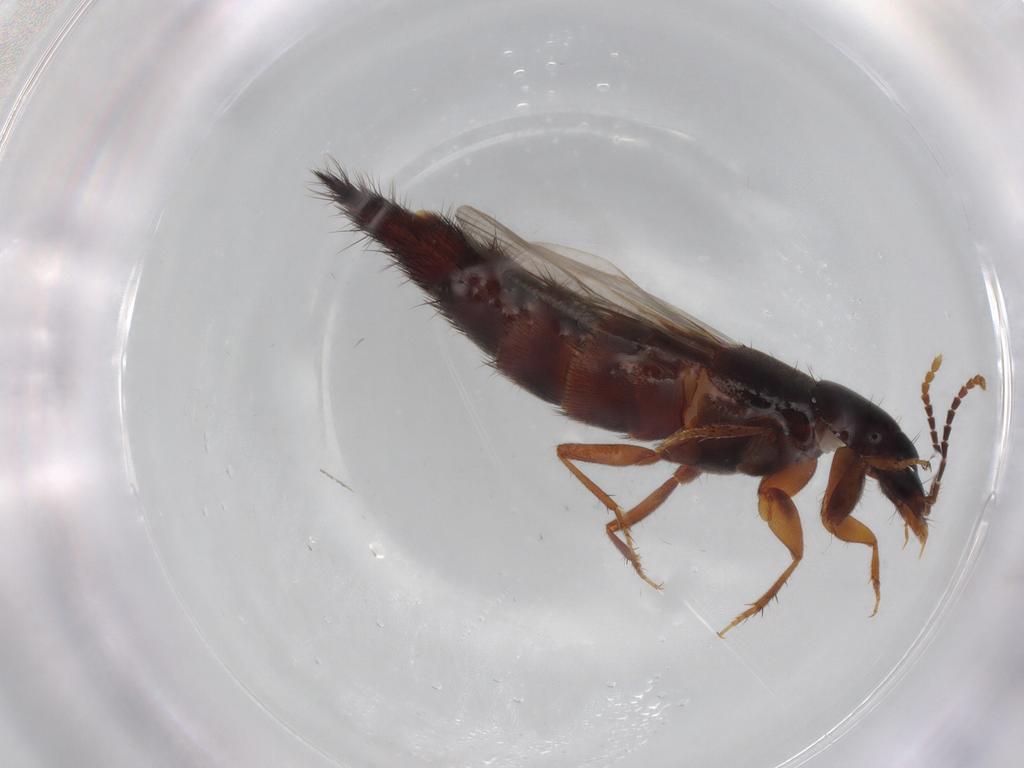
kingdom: Animalia
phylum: Arthropoda
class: Insecta
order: Coleoptera
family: Staphylinidae
